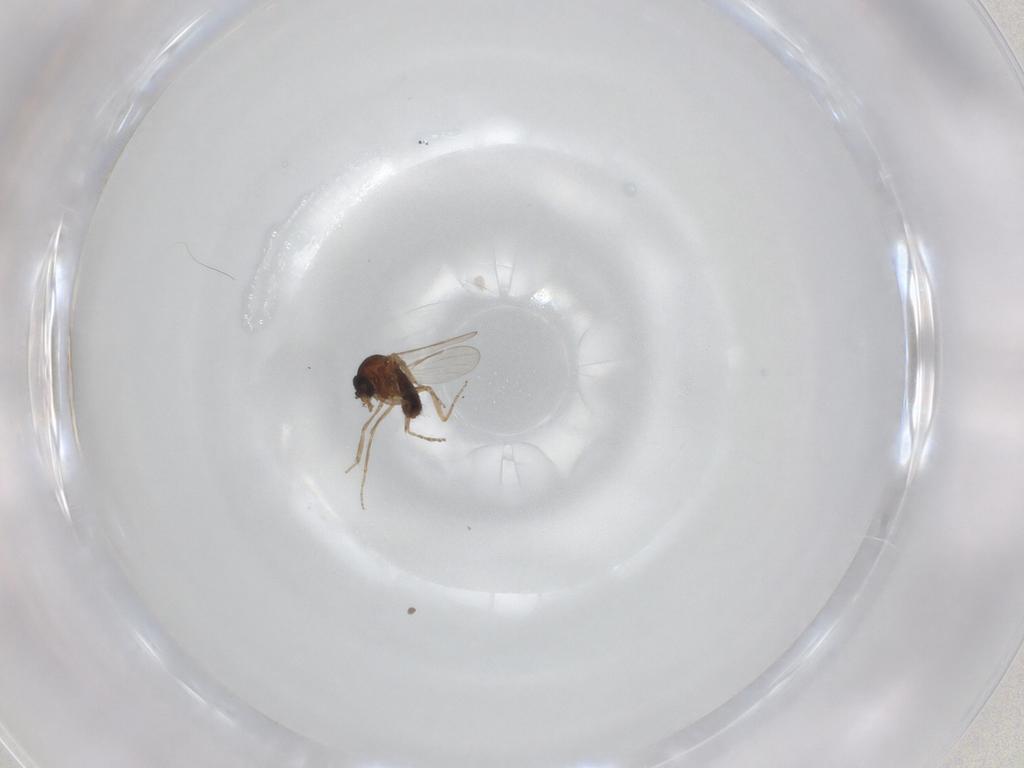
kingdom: Animalia
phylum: Arthropoda
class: Insecta
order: Diptera
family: Ceratopogonidae
